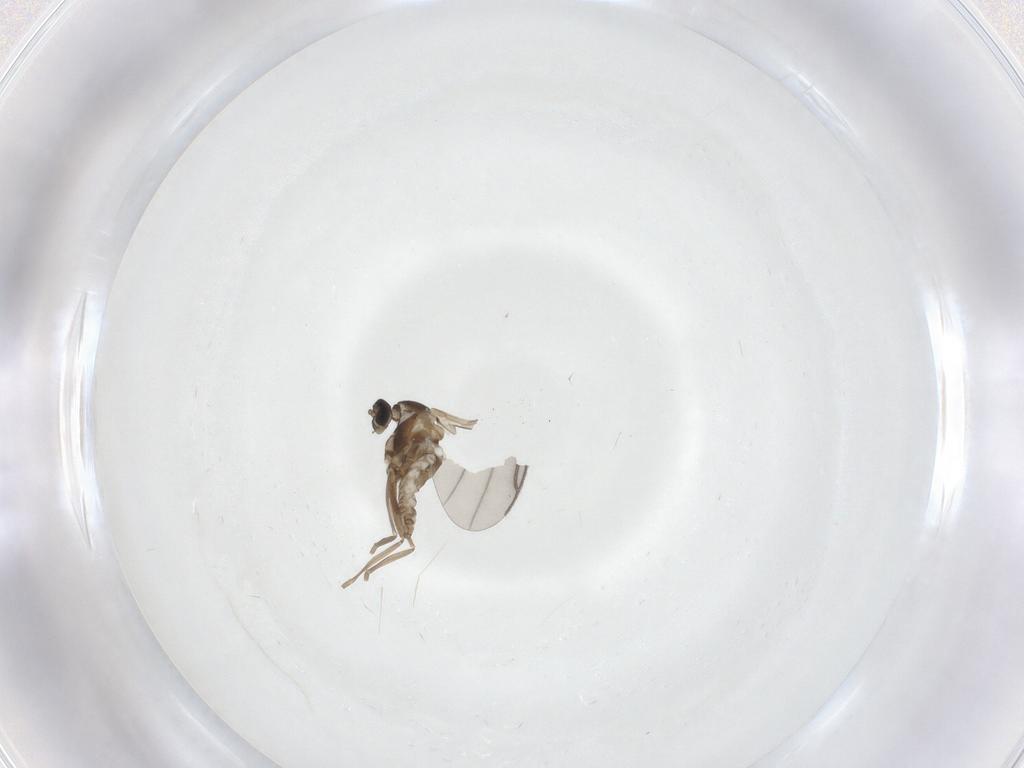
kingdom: Animalia
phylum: Arthropoda
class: Insecta
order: Diptera
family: Cecidomyiidae
